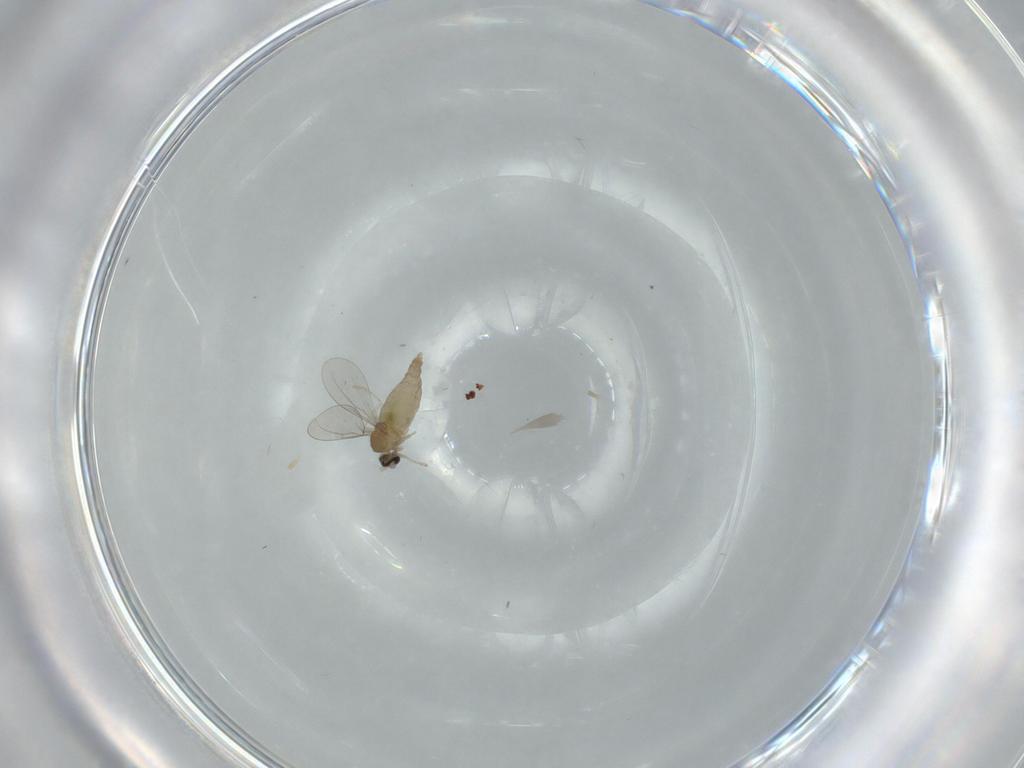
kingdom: Animalia
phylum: Arthropoda
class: Insecta
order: Diptera
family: Cecidomyiidae
